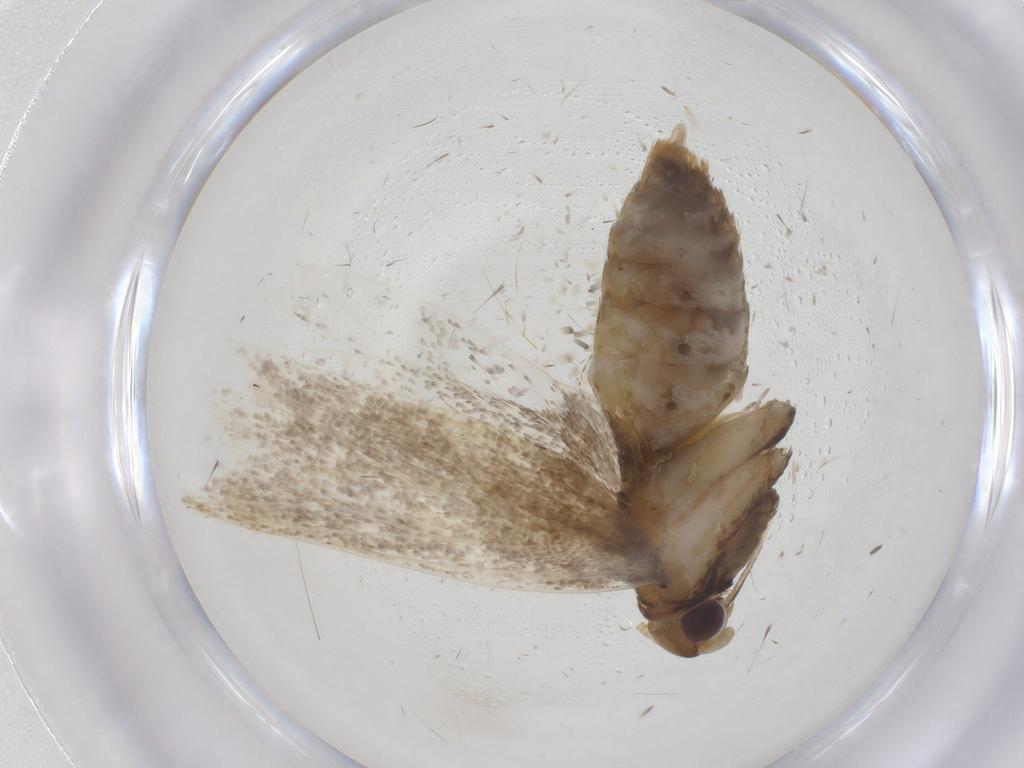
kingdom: Animalia
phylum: Arthropoda
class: Insecta
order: Lepidoptera
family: Lecithoceridae
